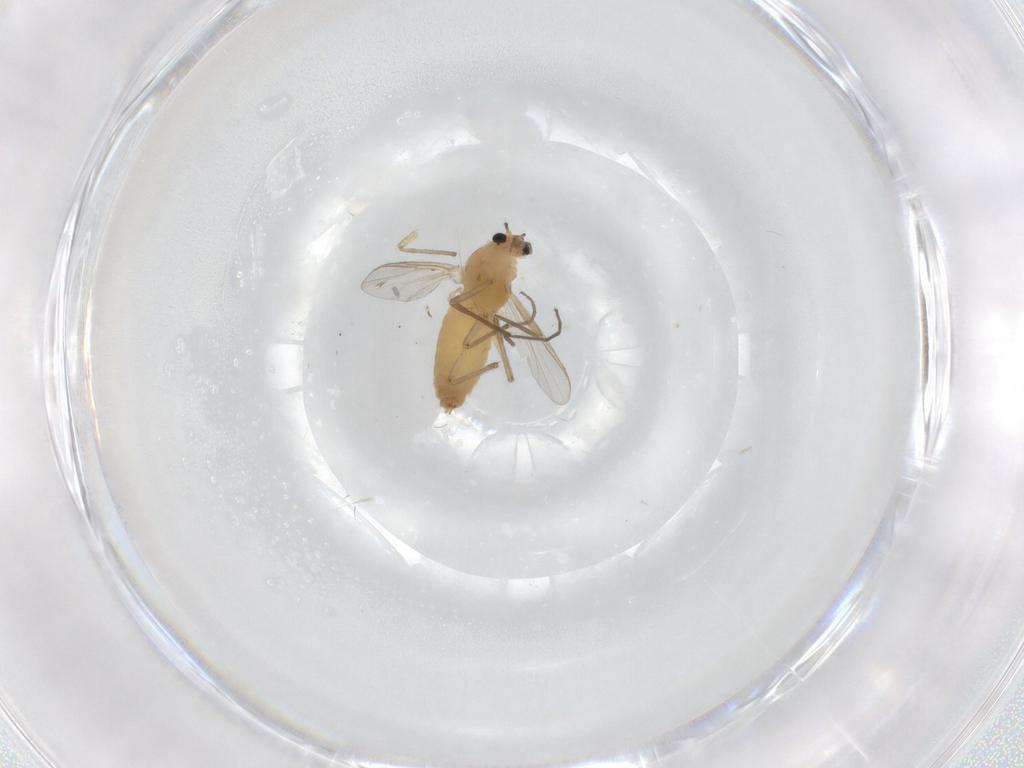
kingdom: Animalia
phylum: Arthropoda
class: Insecta
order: Diptera
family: Chironomidae
